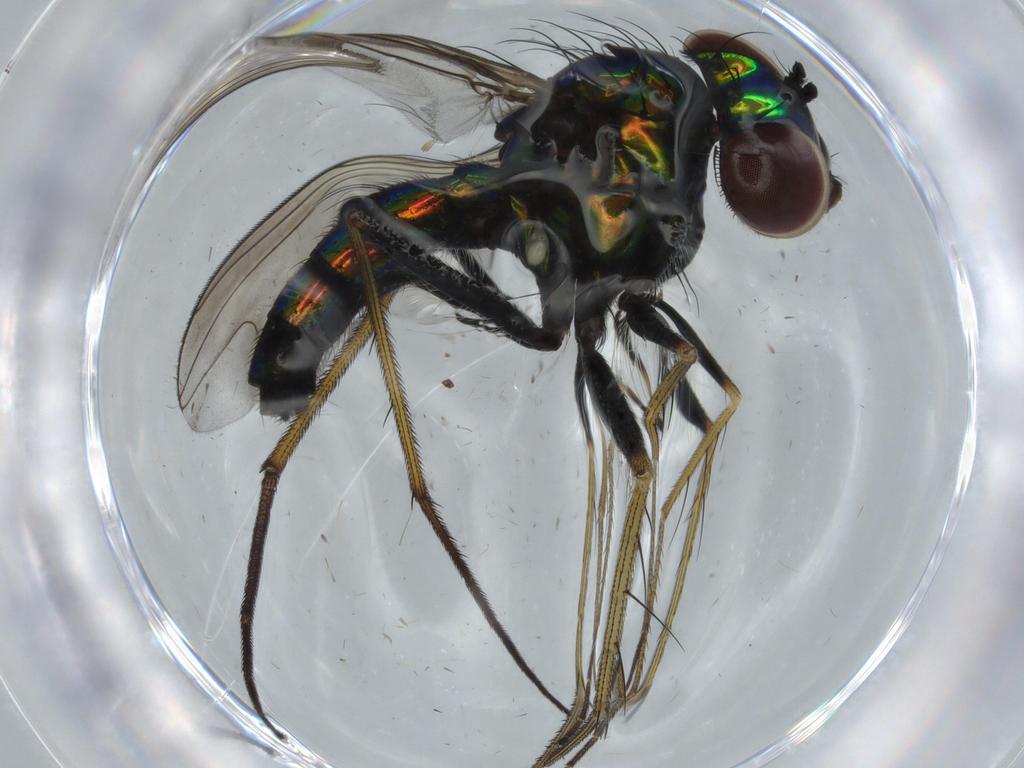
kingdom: Animalia
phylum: Arthropoda
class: Insecta
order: Diptera
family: Dolichopodidae
